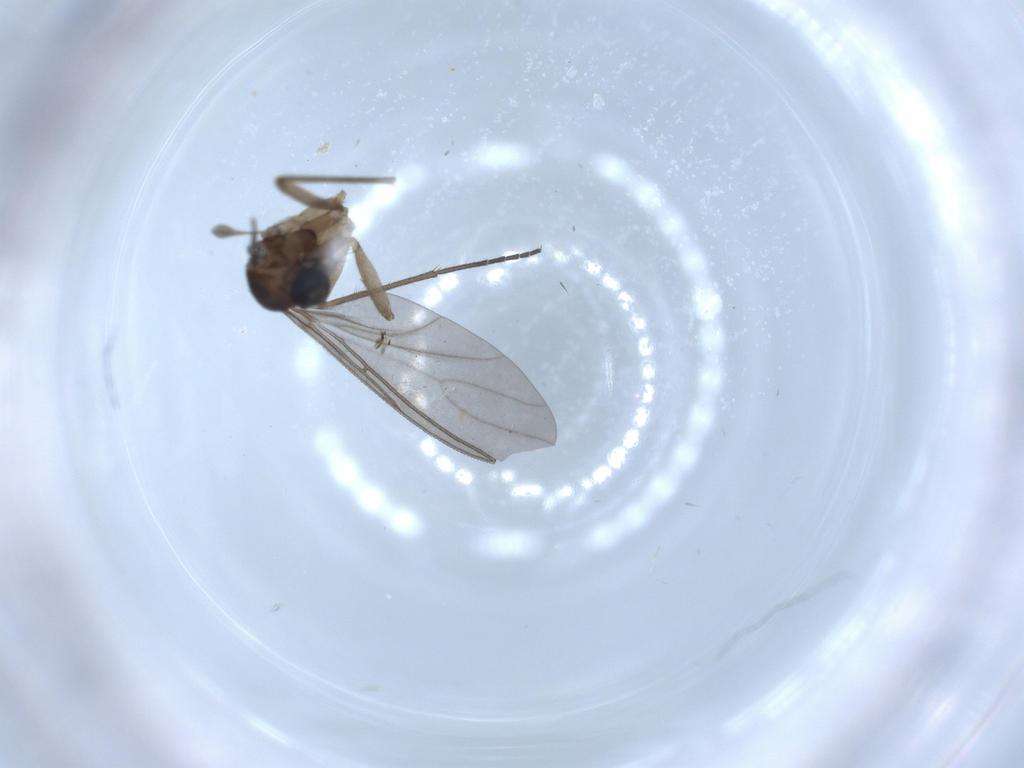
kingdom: Animalia
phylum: Arthropoda
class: Insecta
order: Diptera
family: Sciaridae
